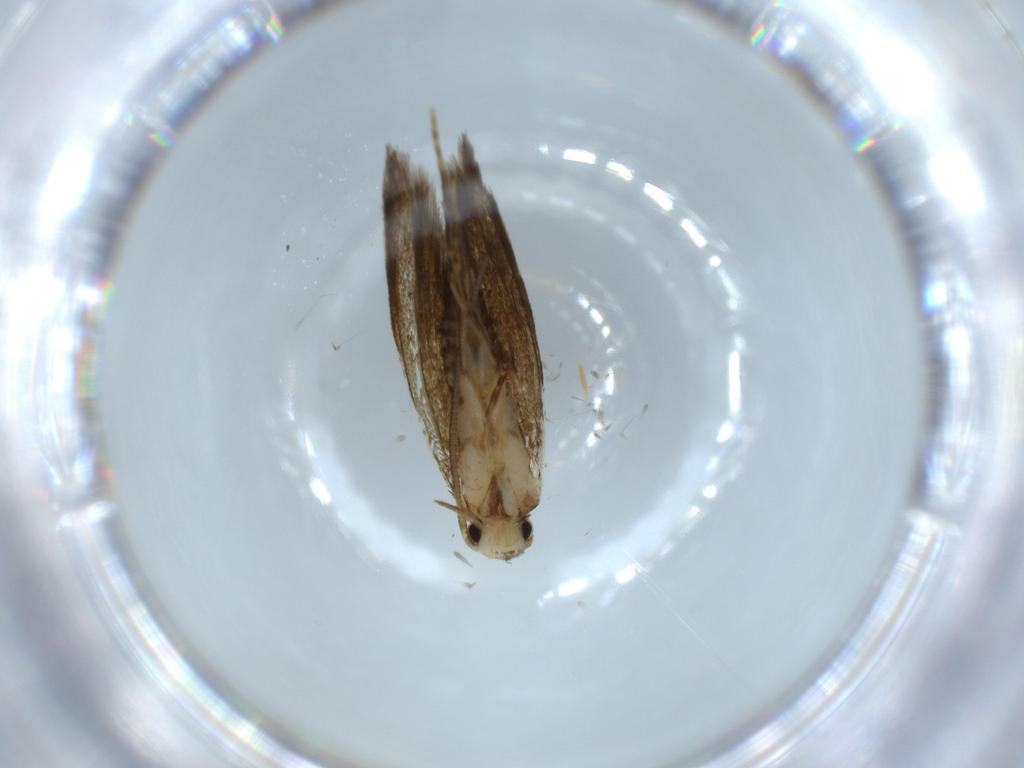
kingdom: Animalia
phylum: Arthropoda
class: Insecta
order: Lepidoptera
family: Tineidae
